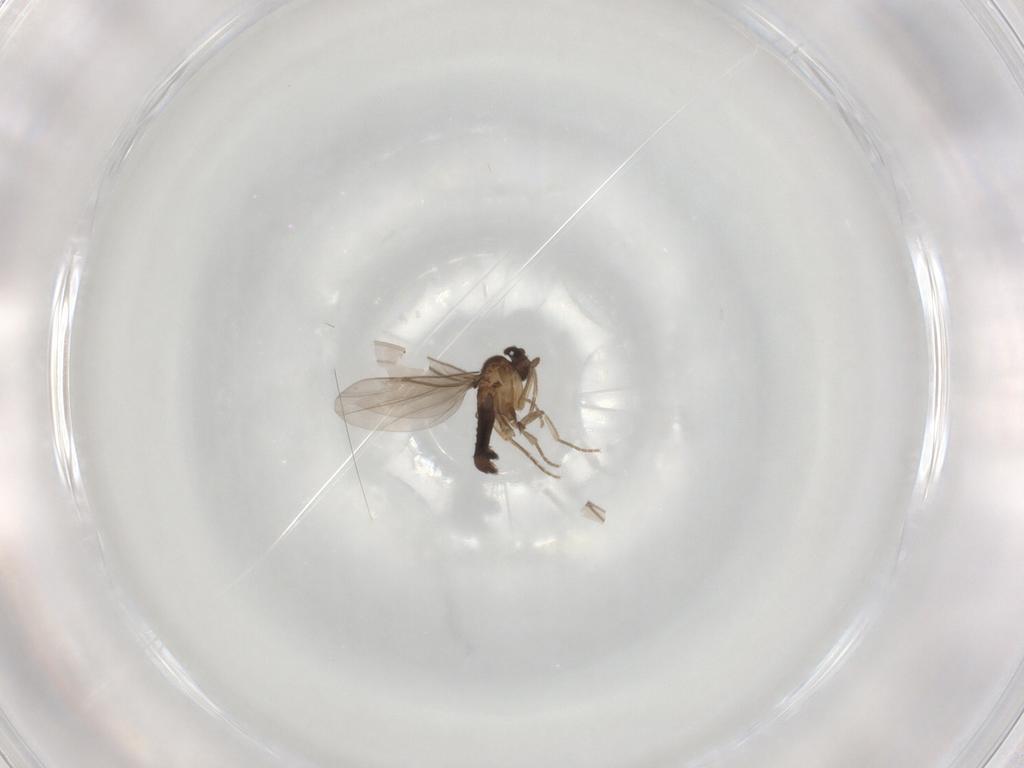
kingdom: Animalia
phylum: Arthropoda
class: Insecta
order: Diptera
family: Phoridae
